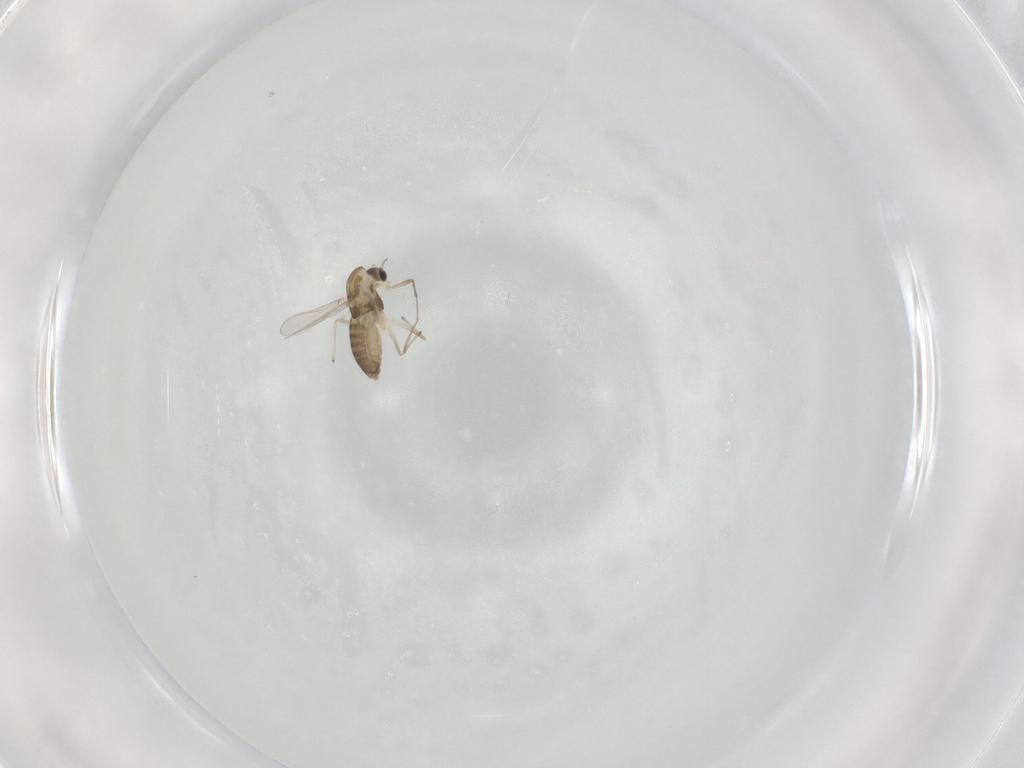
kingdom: Animalia
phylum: Arthropoda
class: Insecta
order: Diptera
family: Chironomidae
